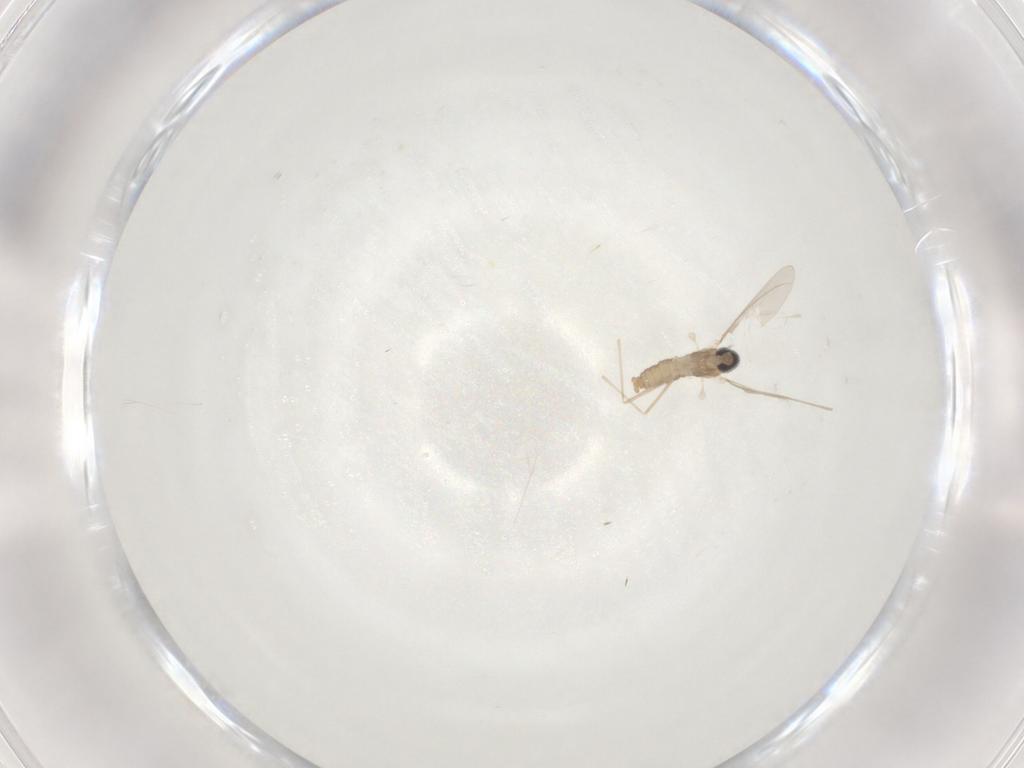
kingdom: Animalia
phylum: Arthropoda
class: Insecta
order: Diptera
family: Cecidomyiidae
